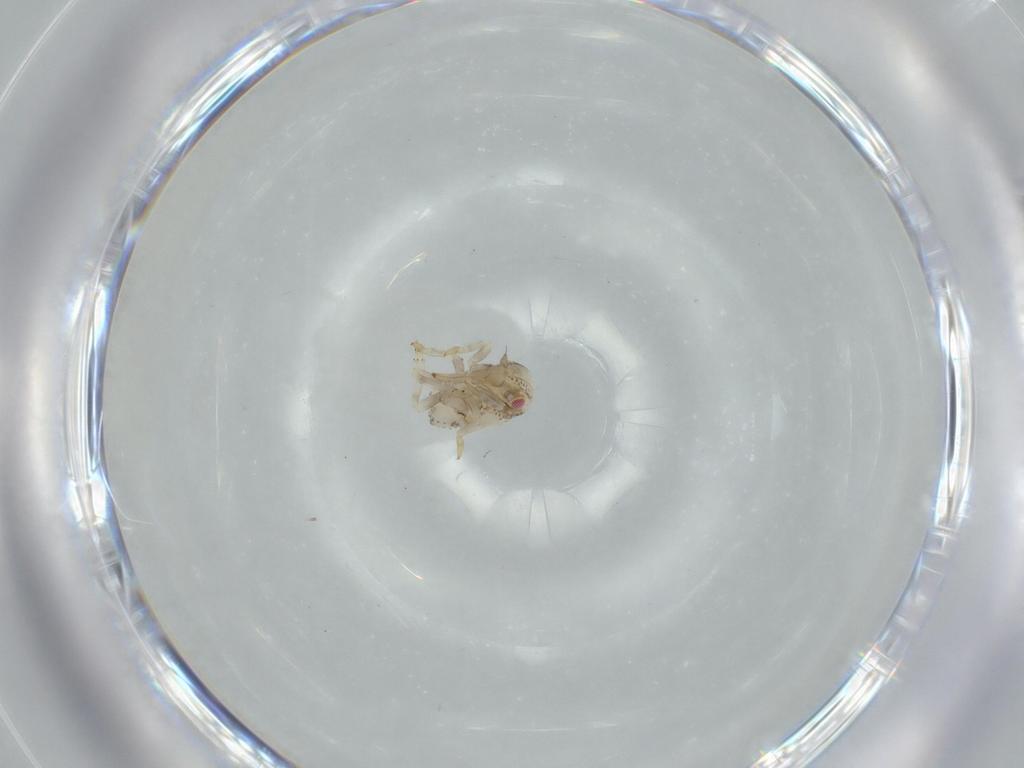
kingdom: Animalia
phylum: Arthropoda
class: Insecta
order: Hemiptera
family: Acanaloniidae
